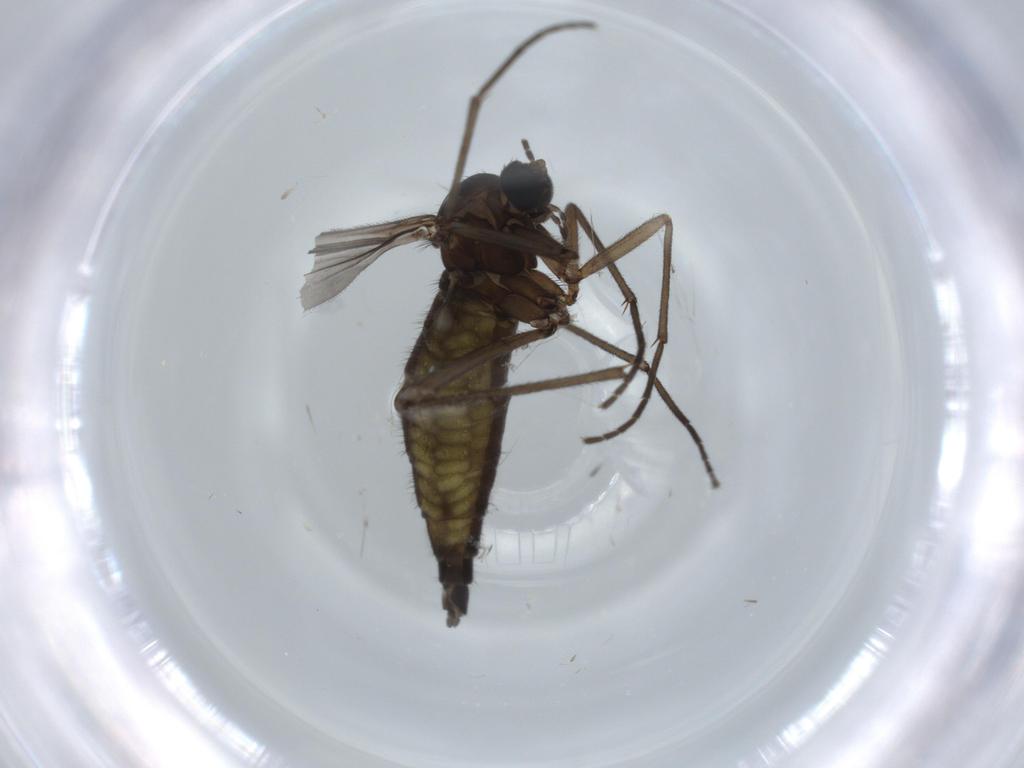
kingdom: Animalia
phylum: Arthropoda
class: Insecta
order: Diptera
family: Sciaridae
